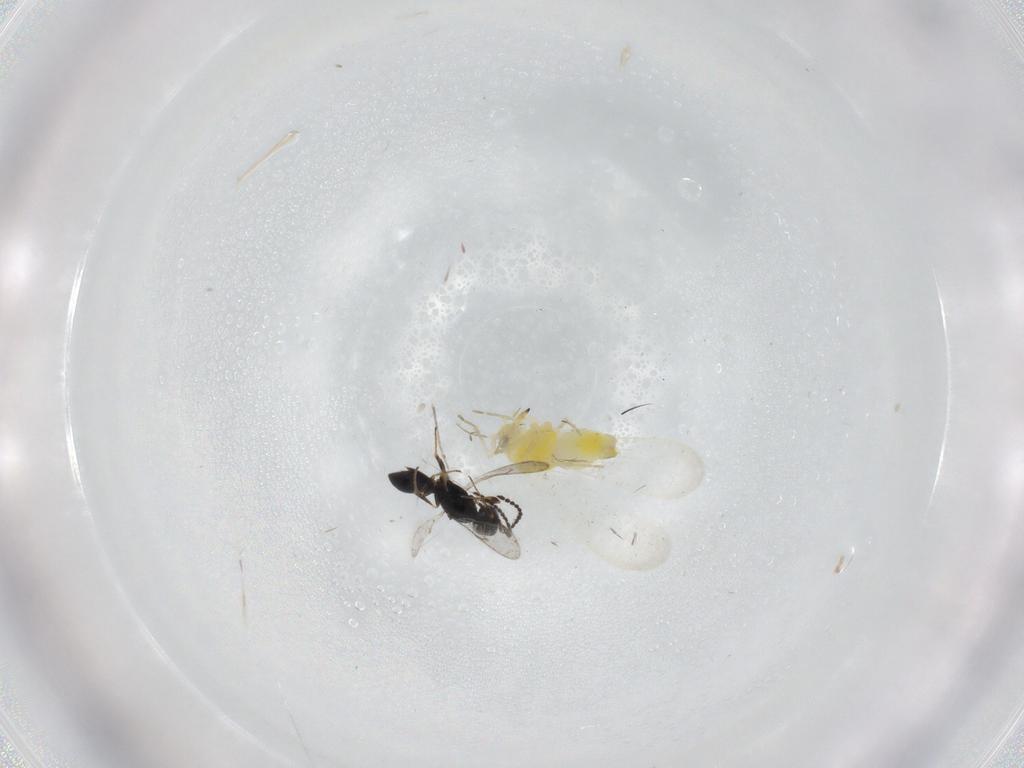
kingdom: Animalia
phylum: Arthropoda
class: Insecta
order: Hymenoptera
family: Scelionidae
